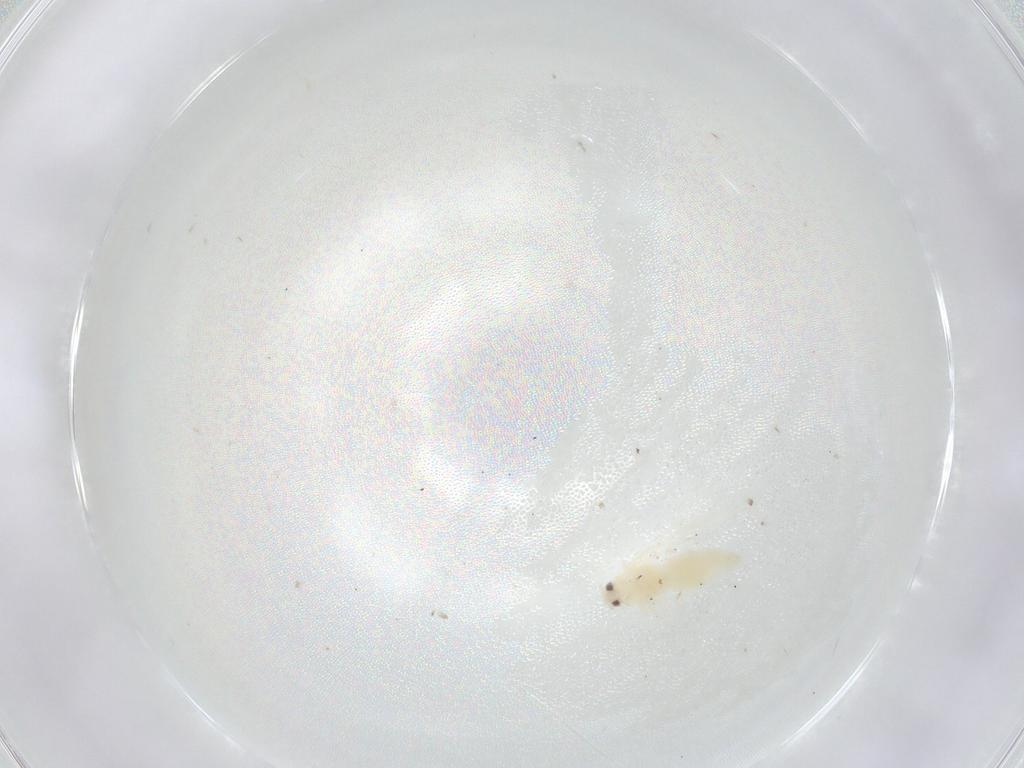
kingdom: Animalia
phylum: Arthropoda
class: Insecta
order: Hemiptera
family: Aleyrodidae
